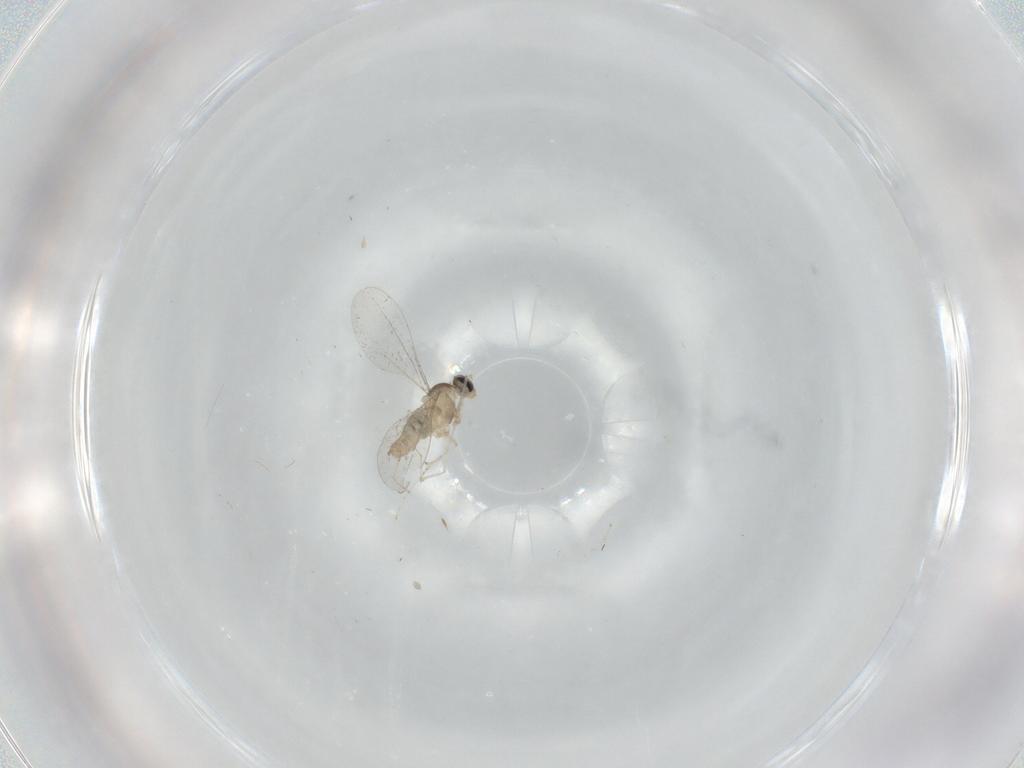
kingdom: Animalia
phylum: Arthropoda
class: Insecta
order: Diptera
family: Cecidomyiidae
